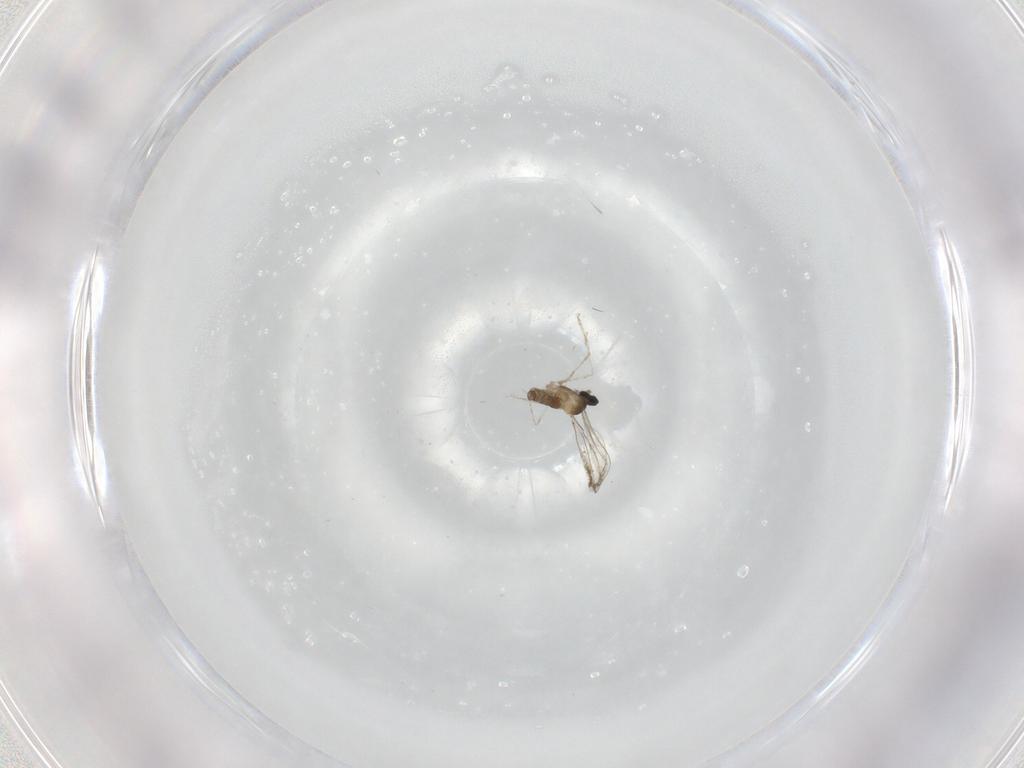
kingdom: Animalia
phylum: Arthropoda
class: Insecta
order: Diptera
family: Cecidomyiidae
